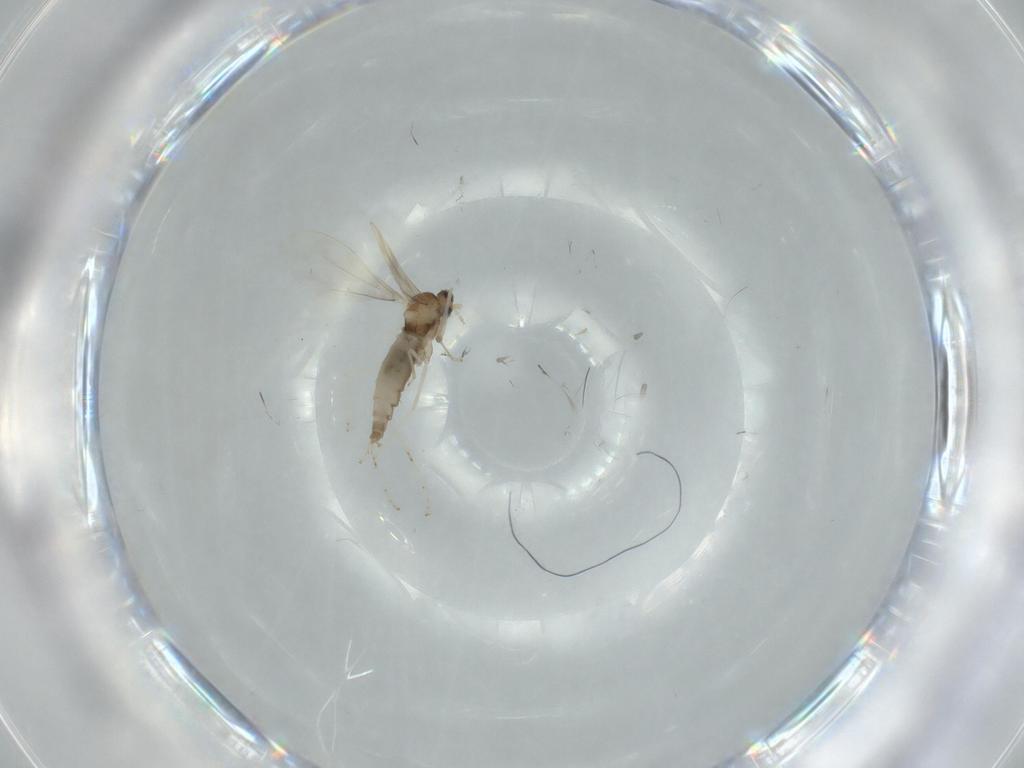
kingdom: Animalia
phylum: Arthropoda
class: Insecta
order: Diptera
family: Cecidomyiidae
